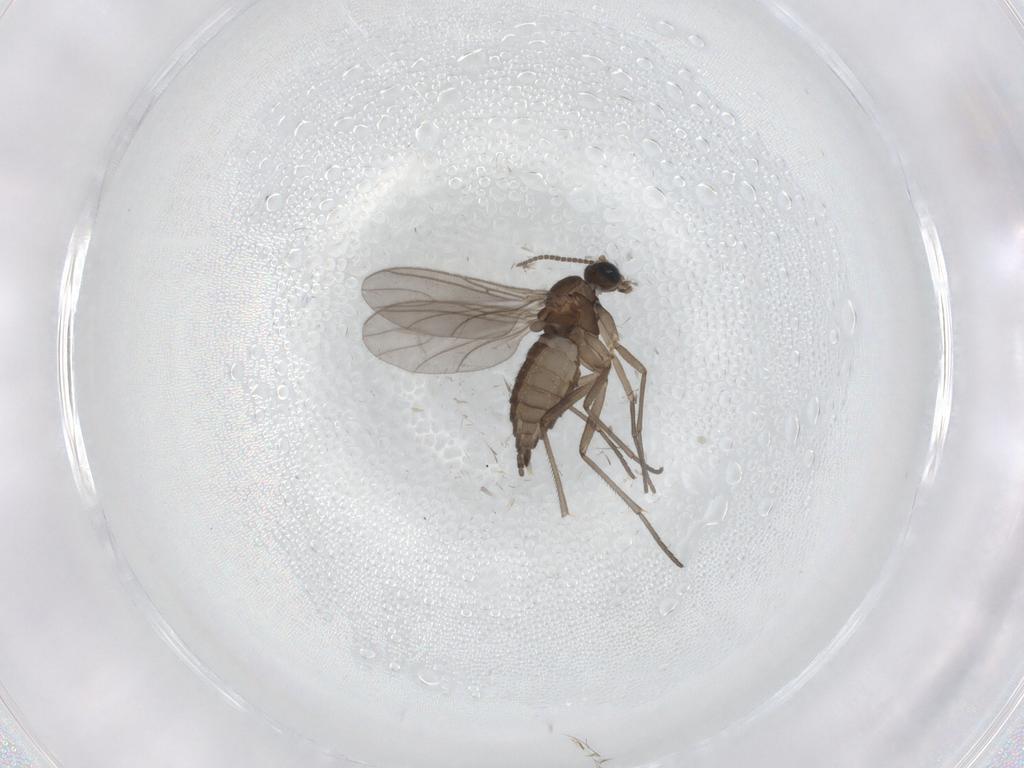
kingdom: Animalia
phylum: Arthropoda
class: Insecta
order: Diptera
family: Sciaridae
